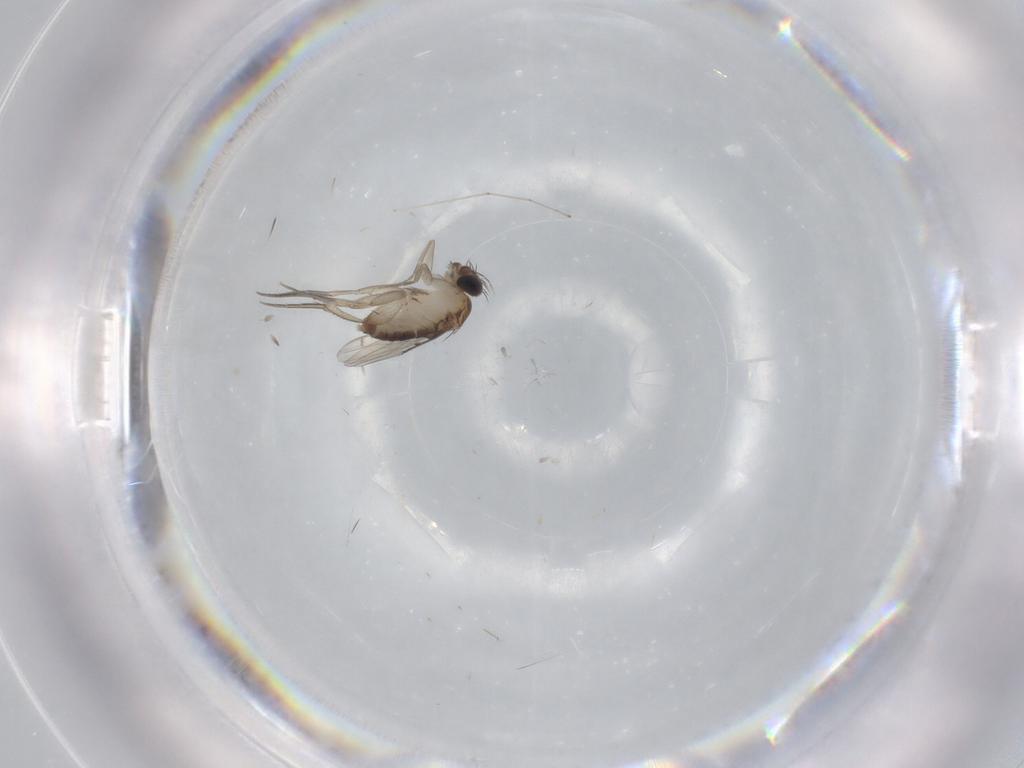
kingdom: Animalia
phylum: Arthropoda
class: Insecta
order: Diptera
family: Phoridae
